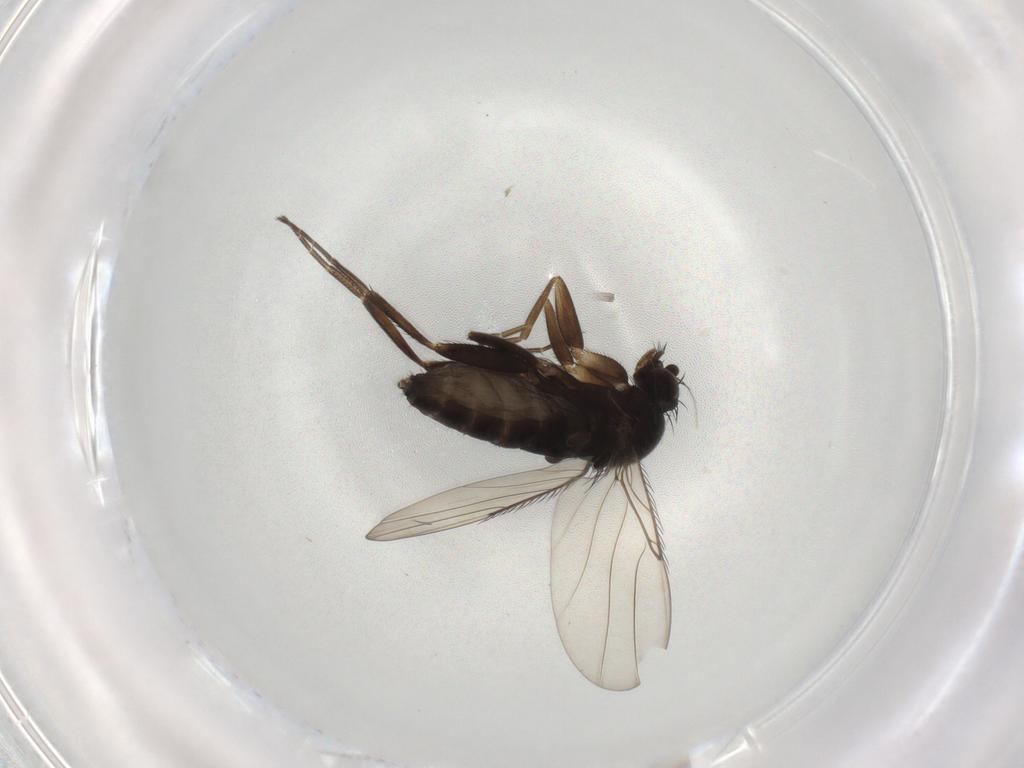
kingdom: Animalia
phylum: Arthropoda
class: Insecta
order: Diptera
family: Phoridae
